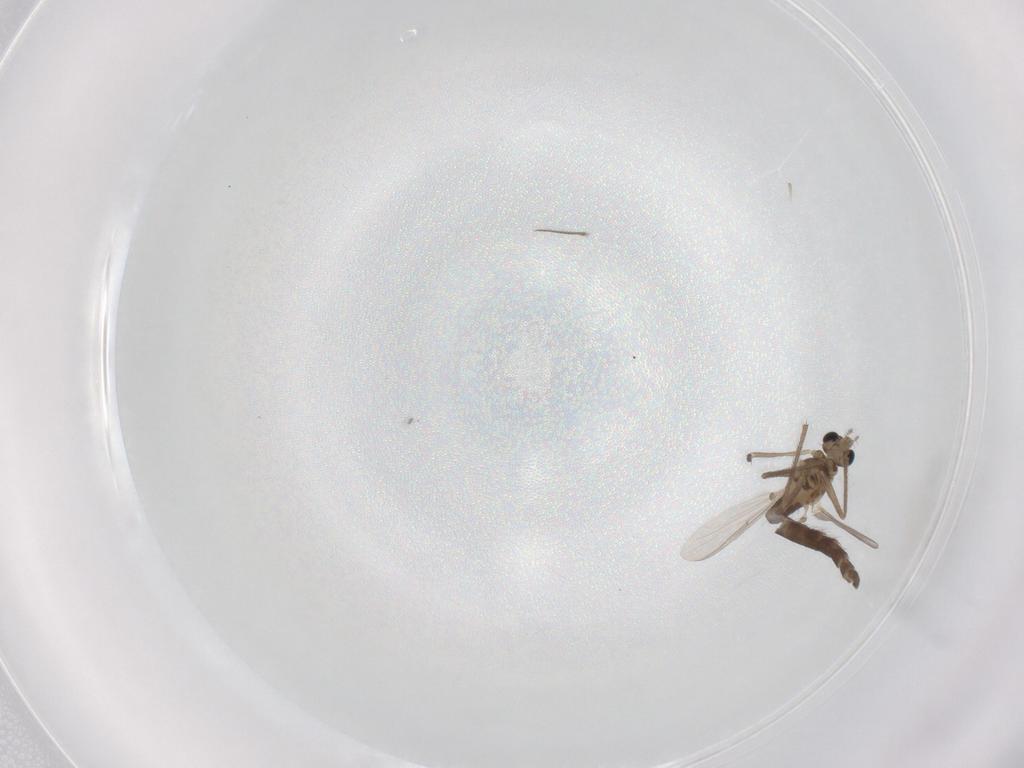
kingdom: Animalia
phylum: Arthropoda
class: Insecta
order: Diptera
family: Chironomidae
